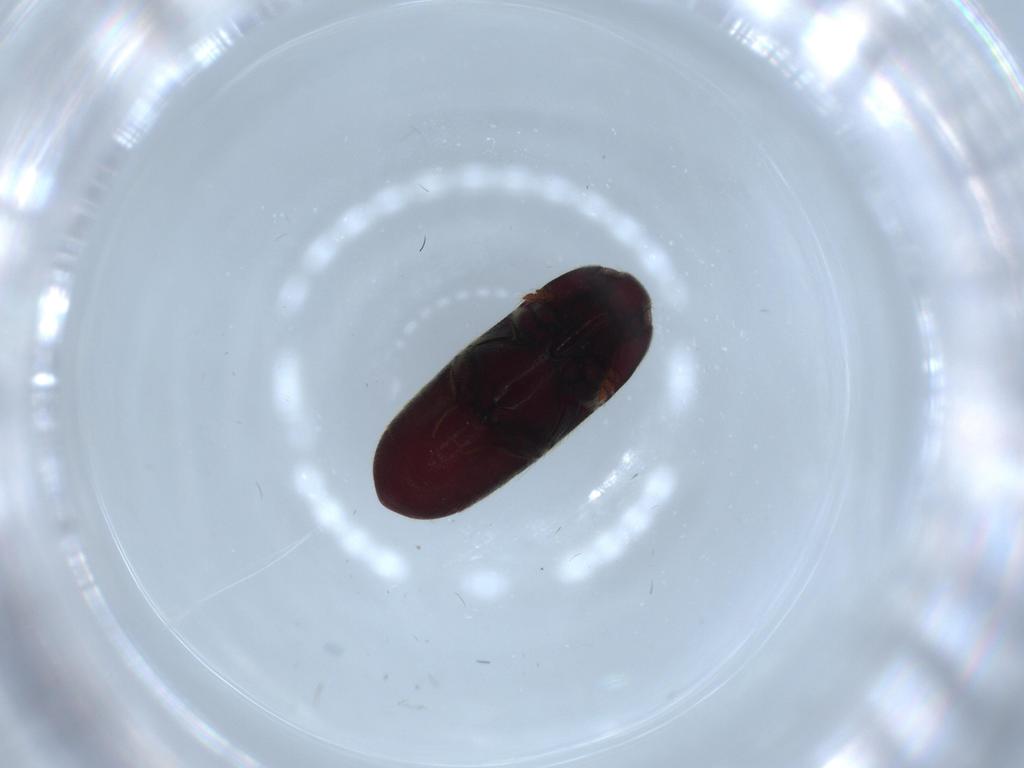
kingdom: Animalia
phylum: Arthropoda
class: Insecta
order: Coleoptera
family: Throscidae
